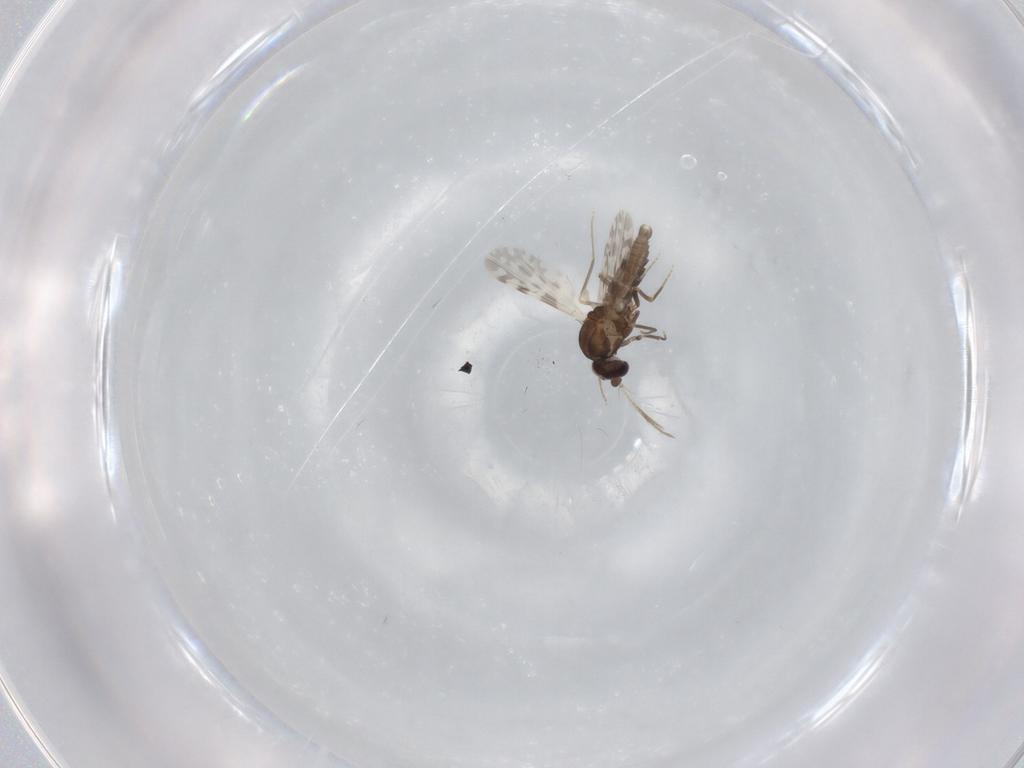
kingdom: Animalia
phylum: Arthropoda
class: Insecta
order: Diptera
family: Ceratopogonidae
